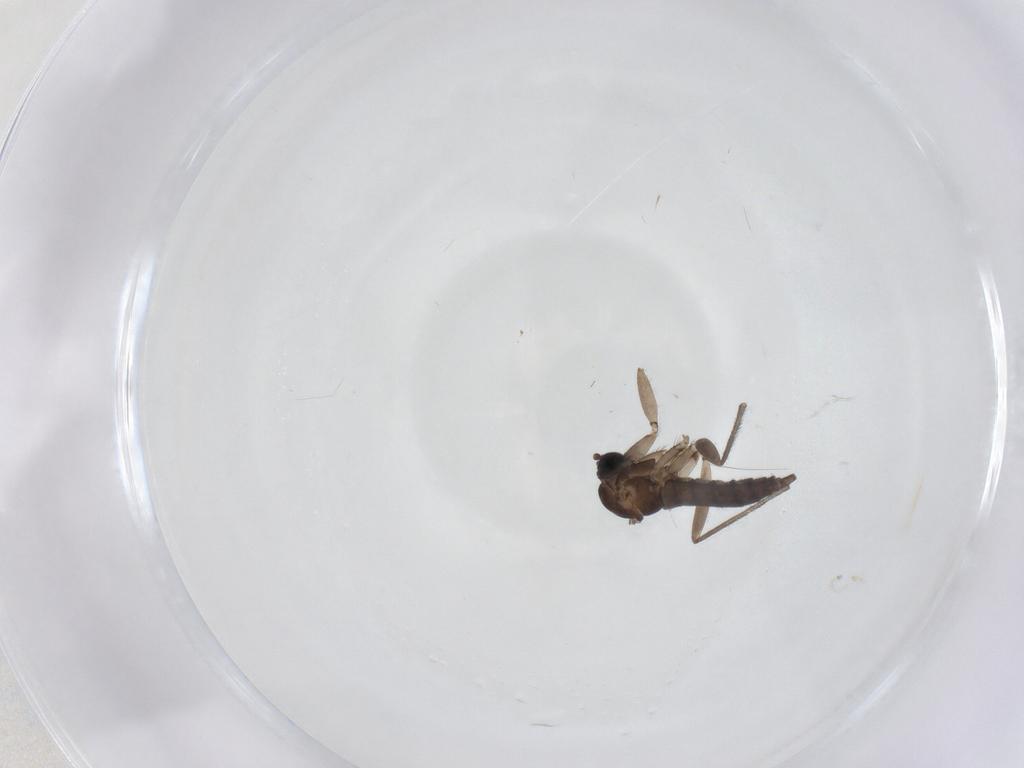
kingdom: Animalia
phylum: Arthropoda
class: Insecta
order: Diptera
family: Sciaridae
